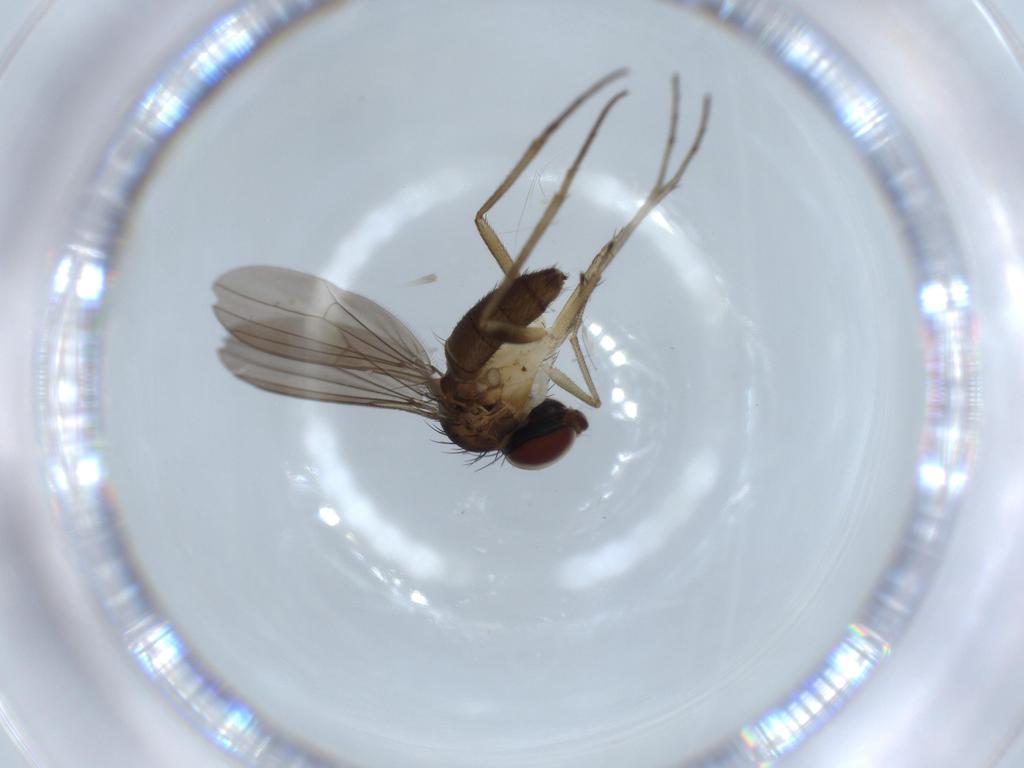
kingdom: Animalia
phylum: Arthropoda
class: Insecta
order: Diptera
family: Dolichopodidae
